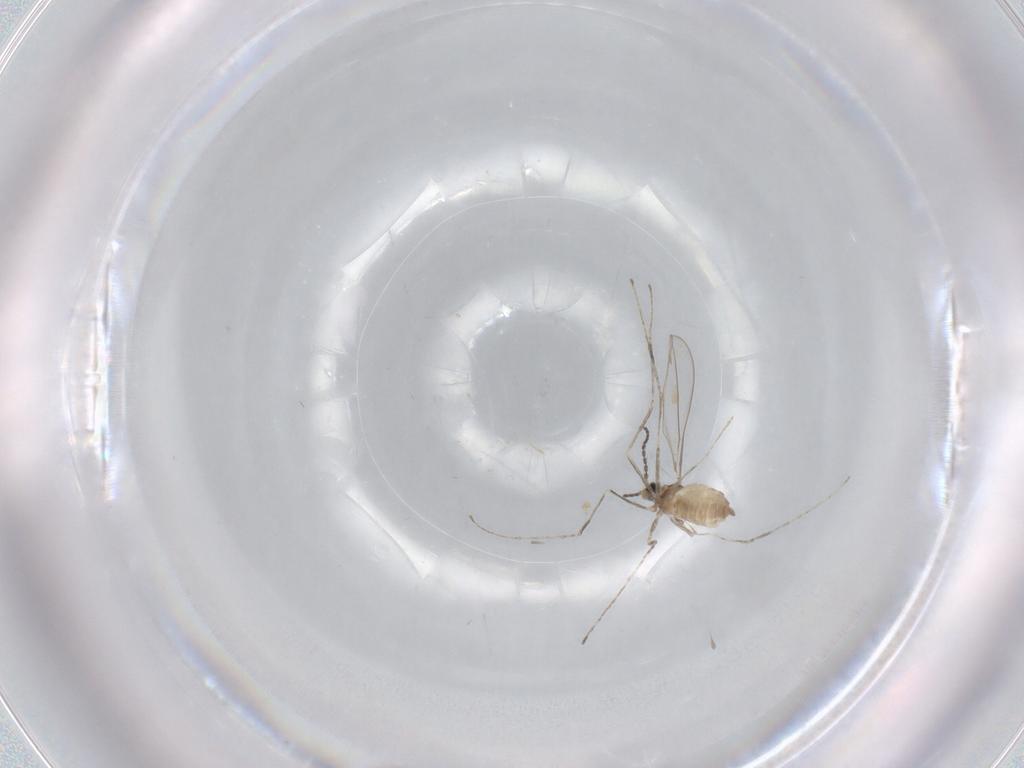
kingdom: Animalia
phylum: Arthropoda
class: Insecta
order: Diptera
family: Cecidomyiidae
